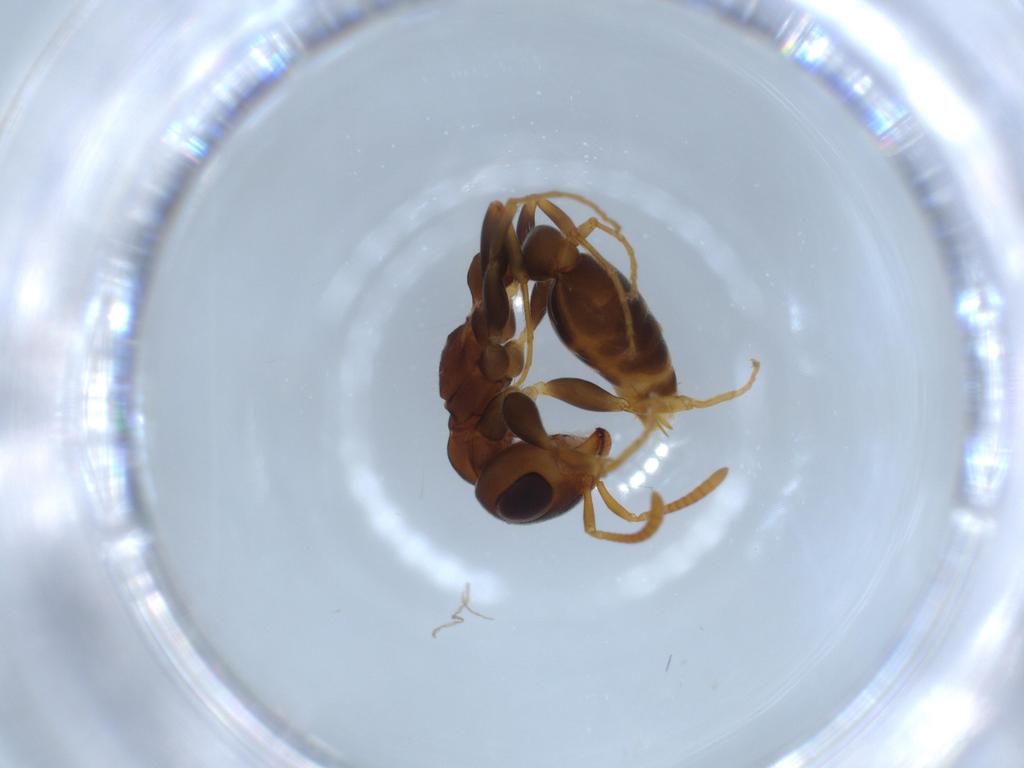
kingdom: Animalia
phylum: Arthropoda
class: Insecta
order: Hymenoptera
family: Formicidae
